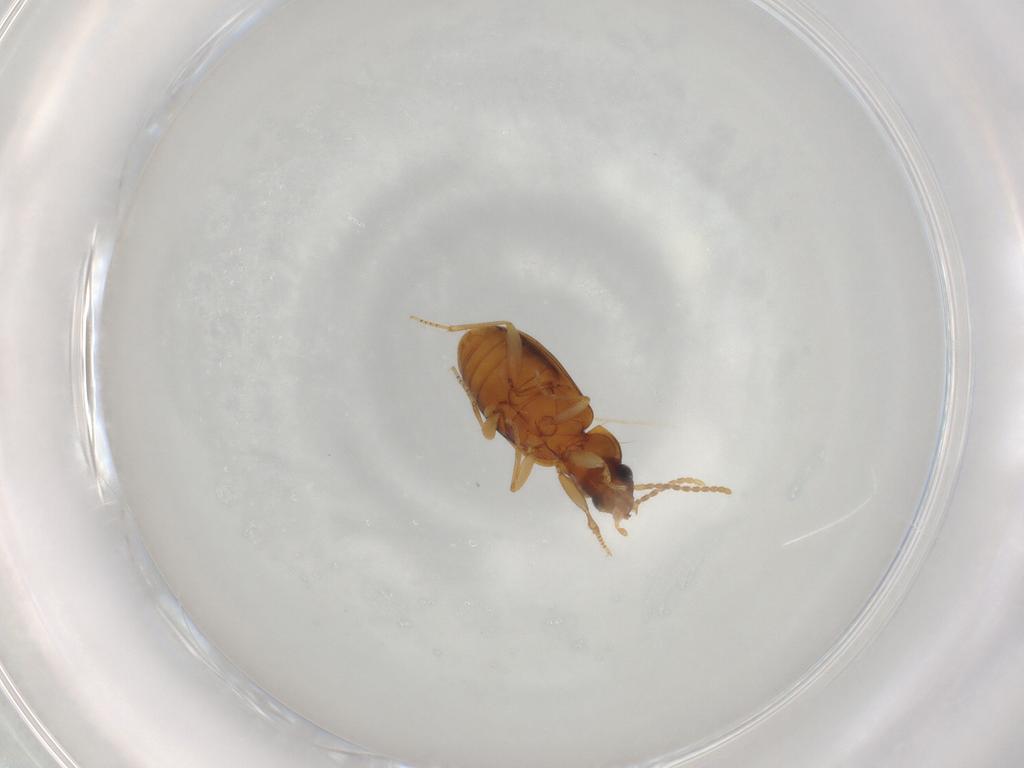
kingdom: Animalia
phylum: Arthropoda
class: Insecta
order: Coleoptera
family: Carabidae
